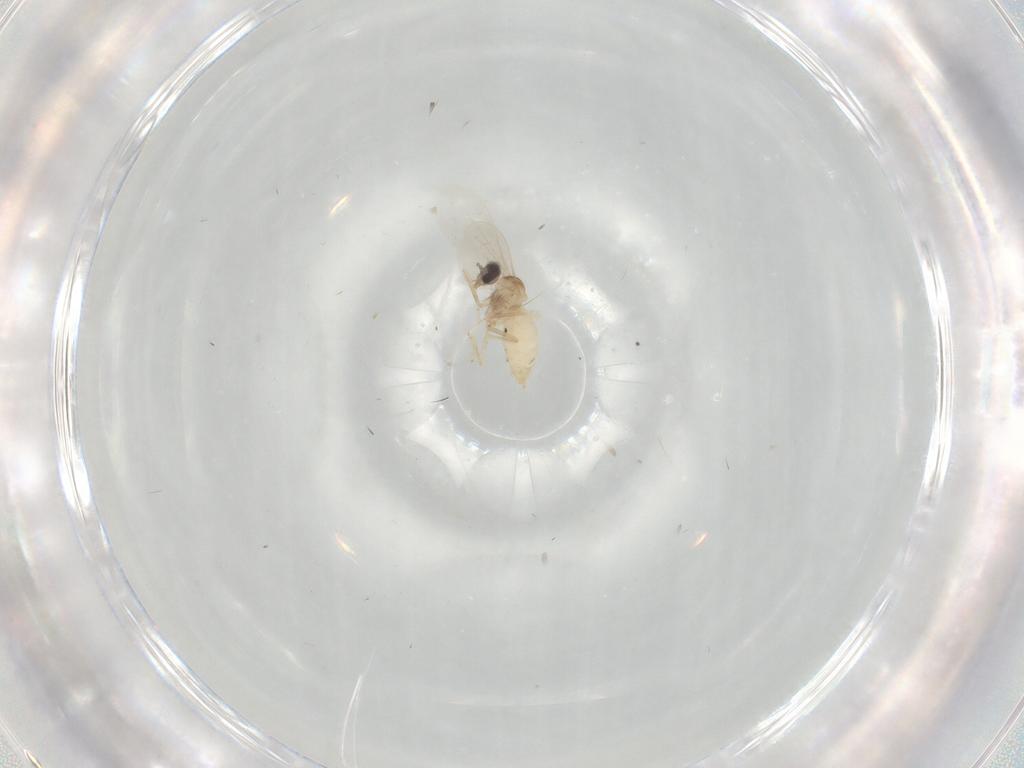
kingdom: Animalia
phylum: Arthropoda
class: Insecta
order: Diptera
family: Cecidomyiidae
